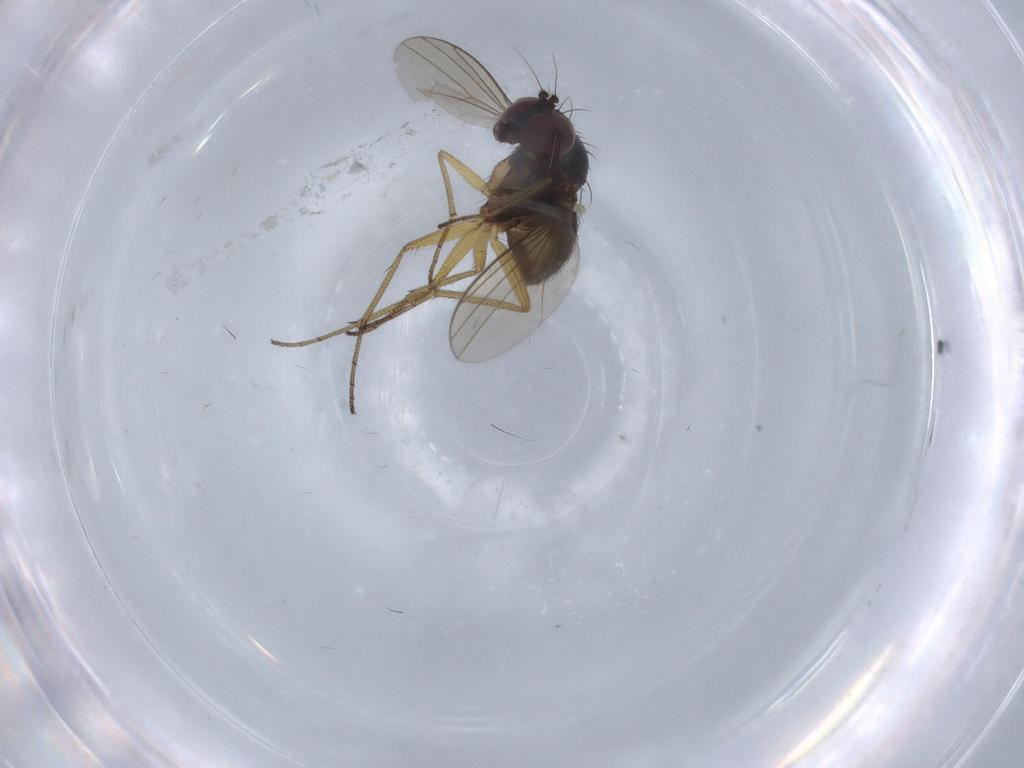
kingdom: Animalia
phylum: Arthropoda
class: Insecta
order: Diptera
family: Dolichopodidae
